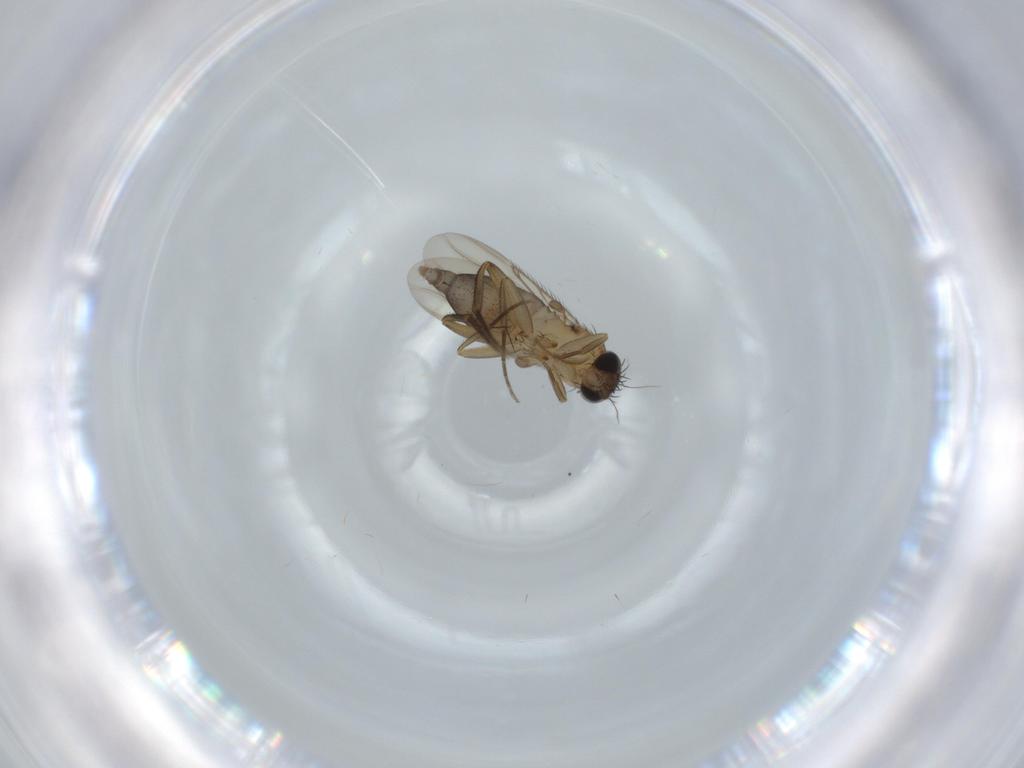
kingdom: Animalia
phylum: Arthropoda
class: Insecta
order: Diptera
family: Phoridae
